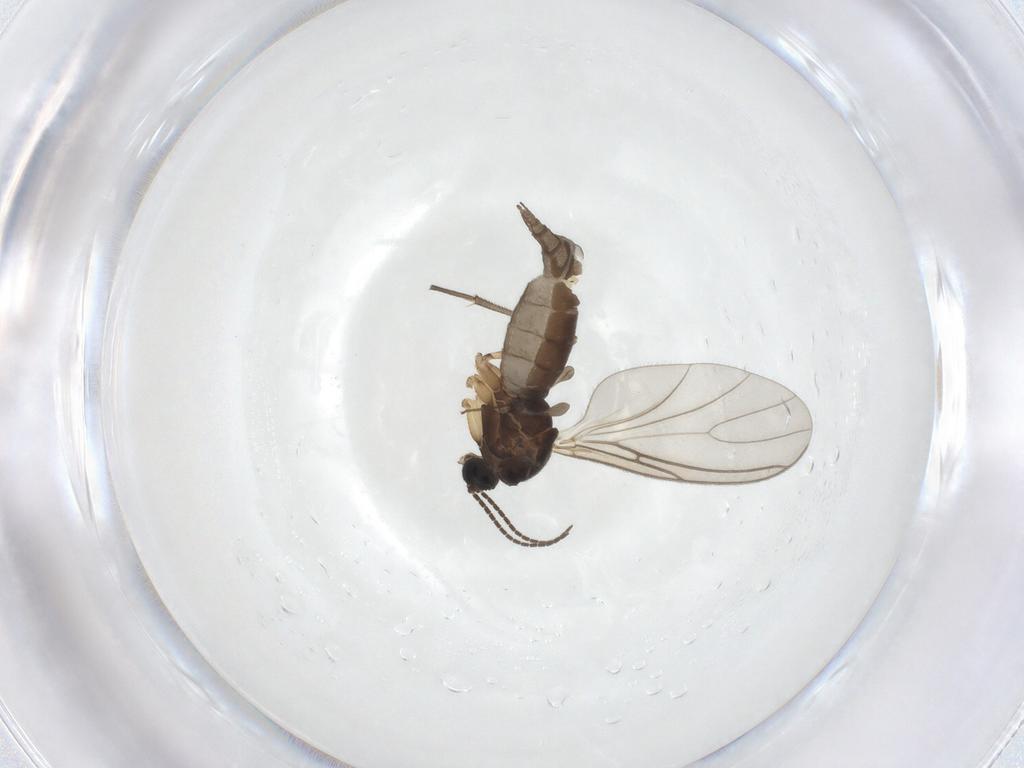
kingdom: Animalia
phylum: Arthropoda
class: Insecta
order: Diptera
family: Sciaridae
